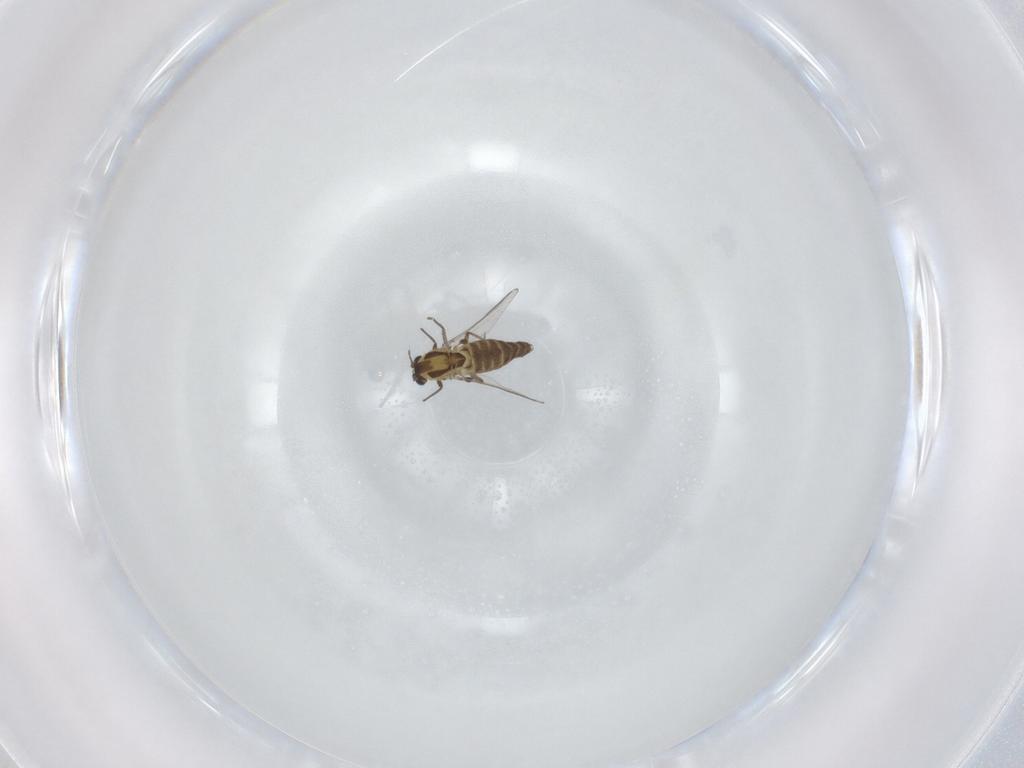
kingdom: Animalia
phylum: Arthropoda
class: Insecta
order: Diptera
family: Chironomidae
